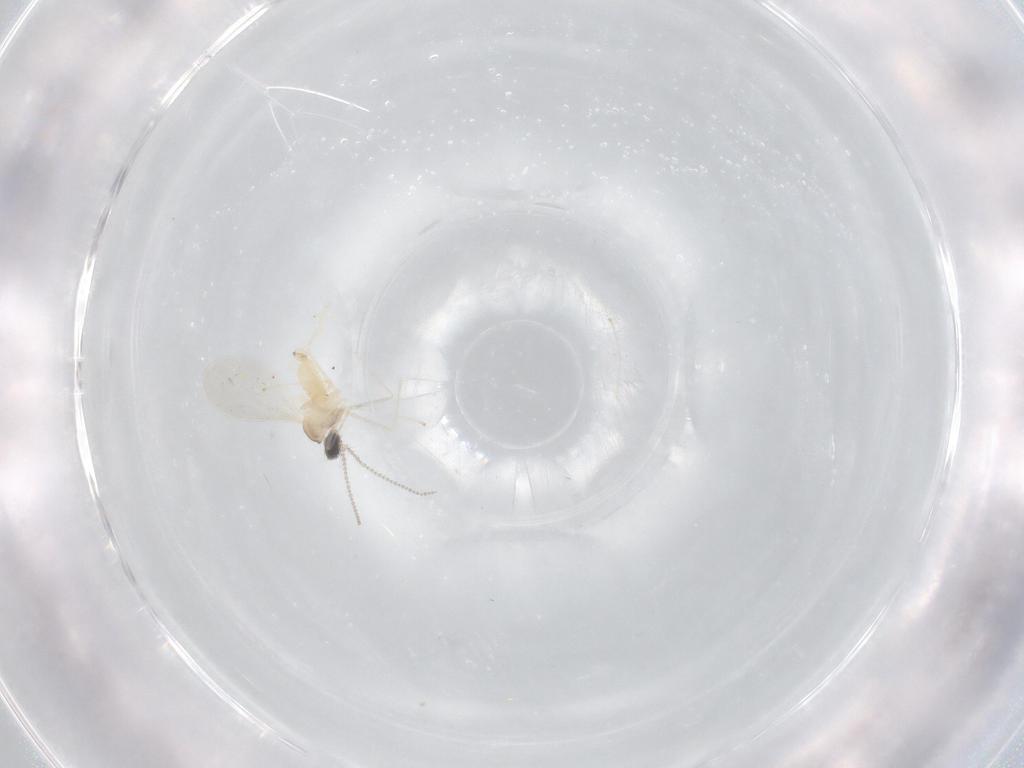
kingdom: Animalia
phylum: Arthropoda
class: Insecta
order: Diptera
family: Cecidomyiidae
